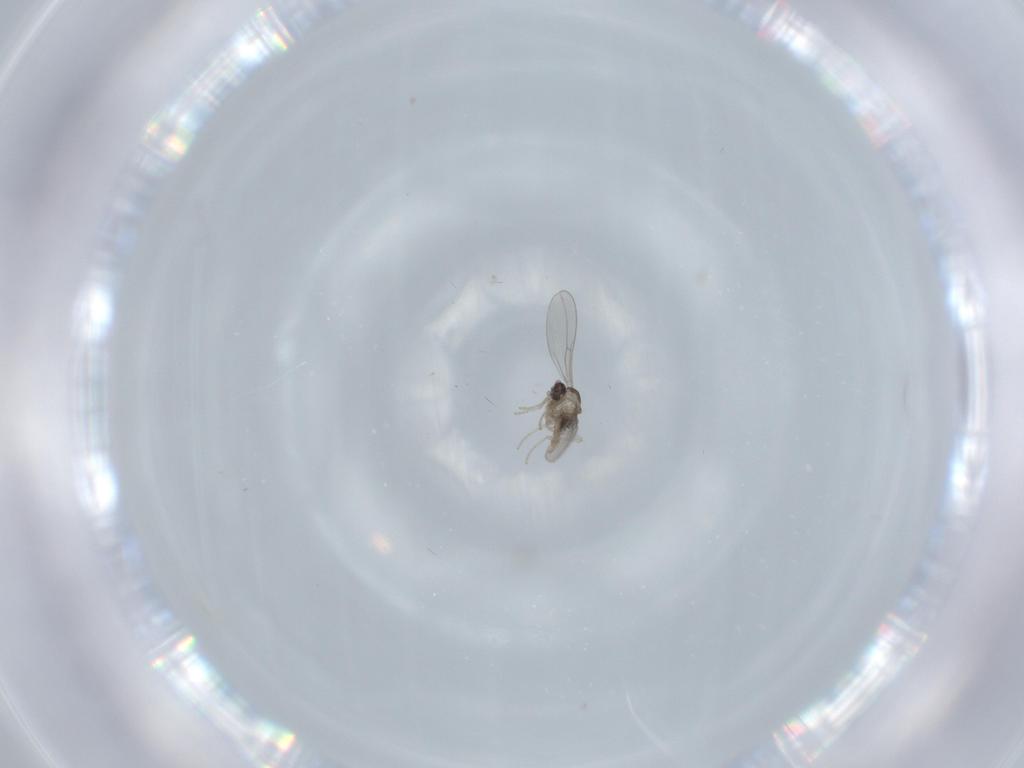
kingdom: Animalia
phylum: Arthropoda
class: Insecta
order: Diptera
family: Cecidomyiidae
